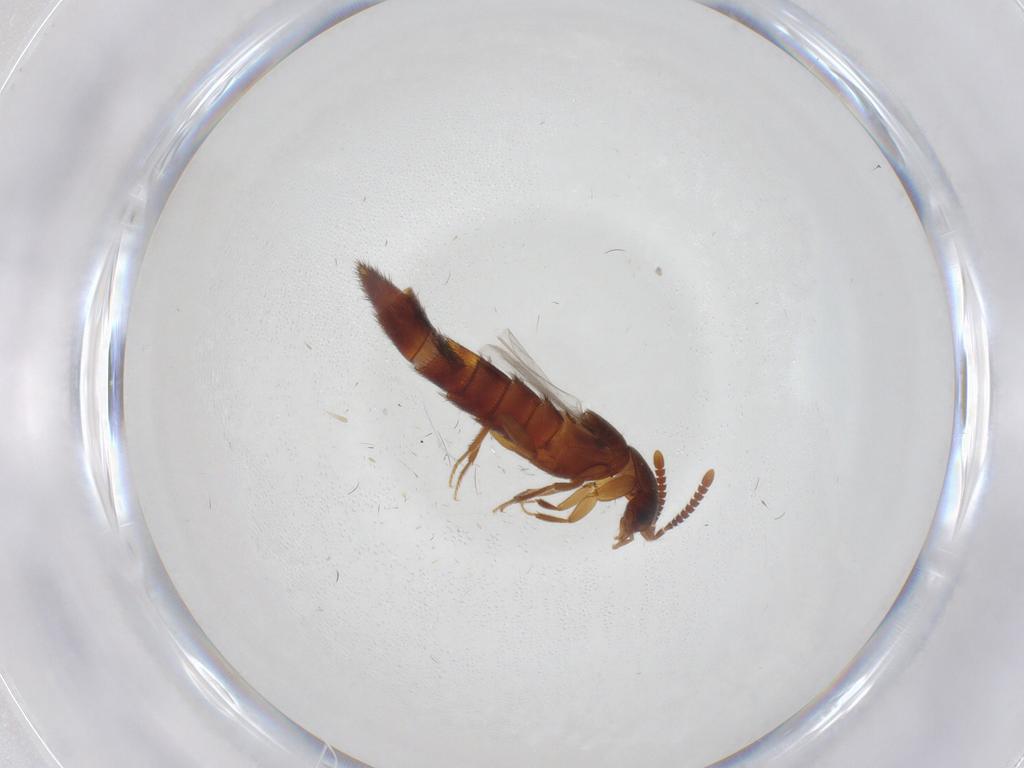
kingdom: Animalia
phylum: Arthropoda
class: Insecta
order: Coleoptera
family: Staphylinidae
